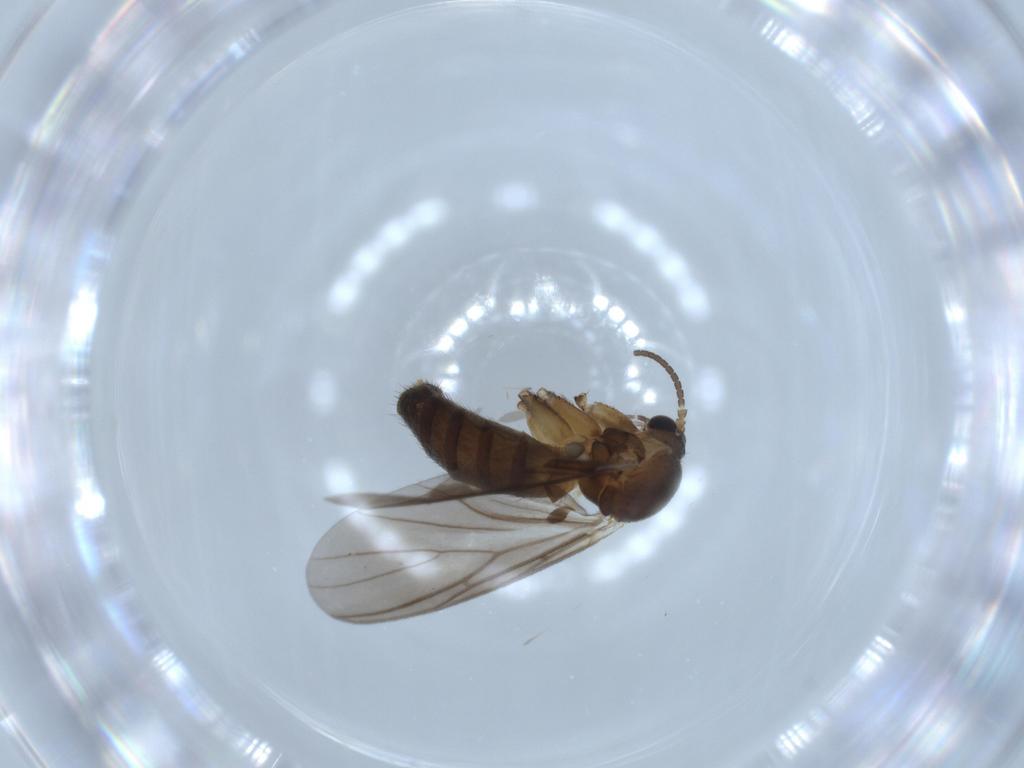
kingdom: Animalia
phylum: Arthropoda
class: Insecta
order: Diptera
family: Mycetophilidae
